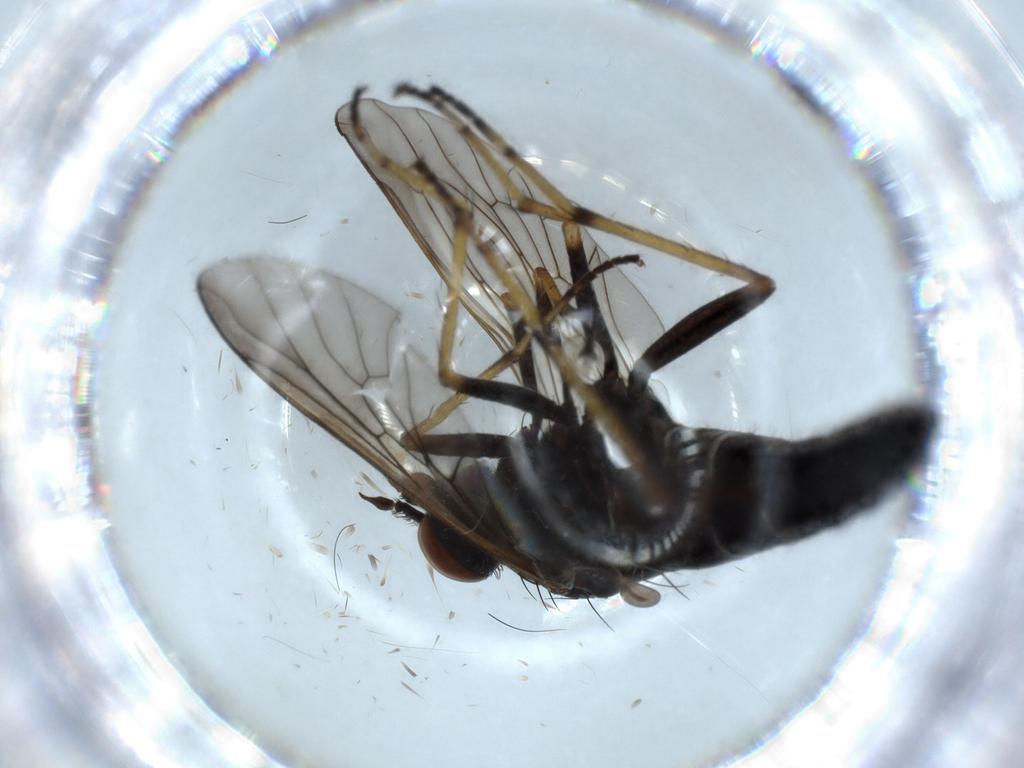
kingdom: Animalia
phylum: Arthropoda
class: Insecta
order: Diptera
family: Therevidae
